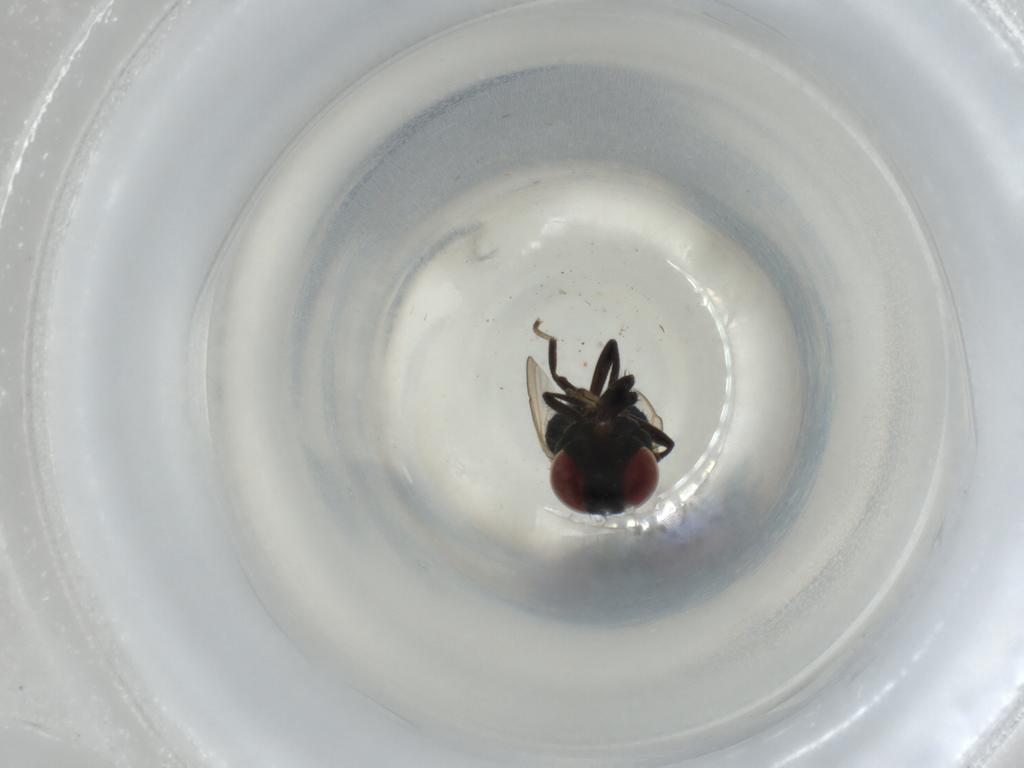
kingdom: Animalia
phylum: Arthropoda
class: Insecta
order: Diptera
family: Lonchaeidae
